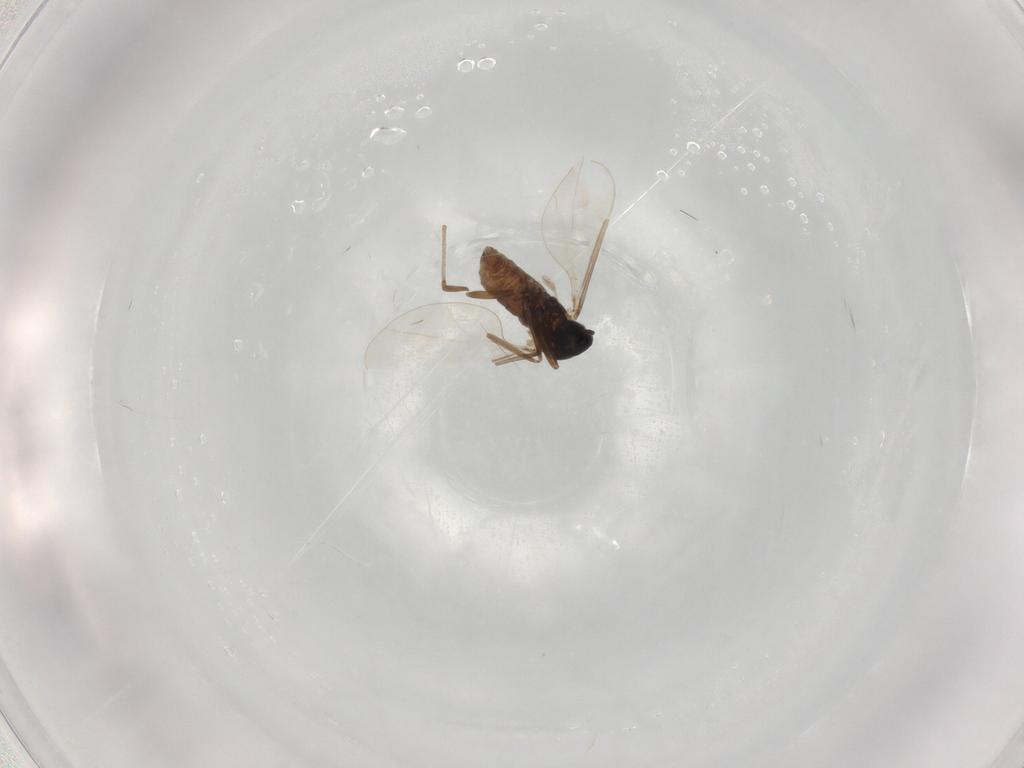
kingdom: Animalia
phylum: Arthropoda
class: Insecta
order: Diptera
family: Cecidomyiidae
